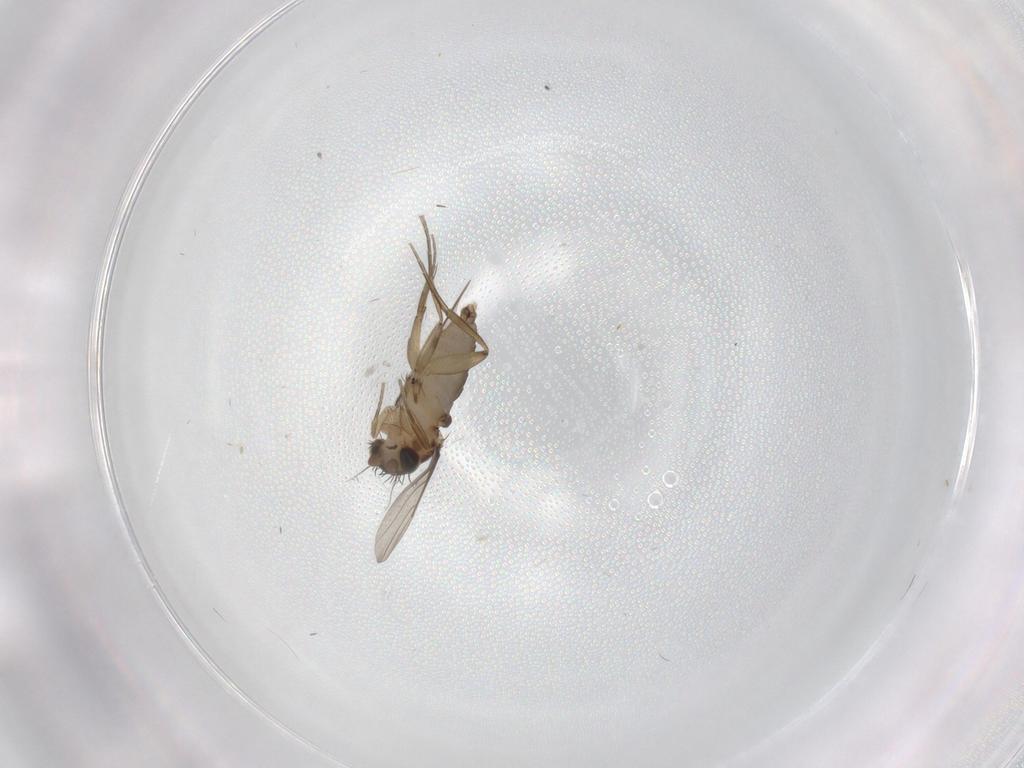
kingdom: Animalia
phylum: Arthropoda
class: Insecta
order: Diptera
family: Phoridae
